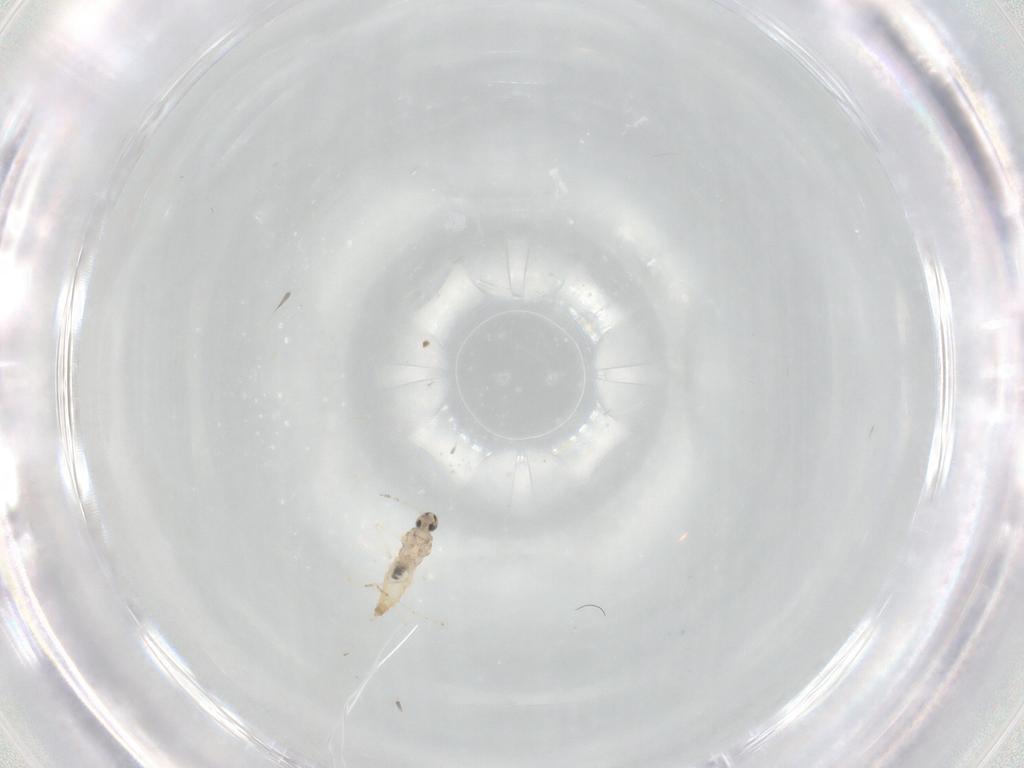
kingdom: Animalia
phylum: Arthropoda
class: Insecta
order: Diptera
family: Cecidomyiidae
